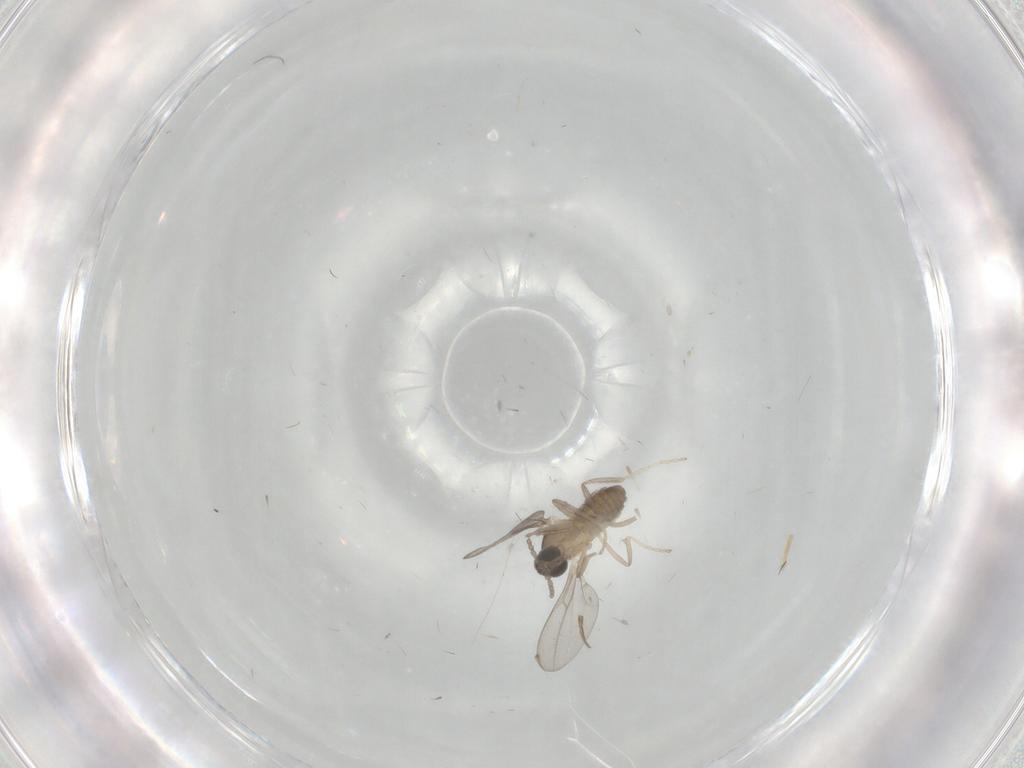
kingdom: Animalia
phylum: Arthropoda
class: Insecta
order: Diptera
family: Cecidomyiidae
